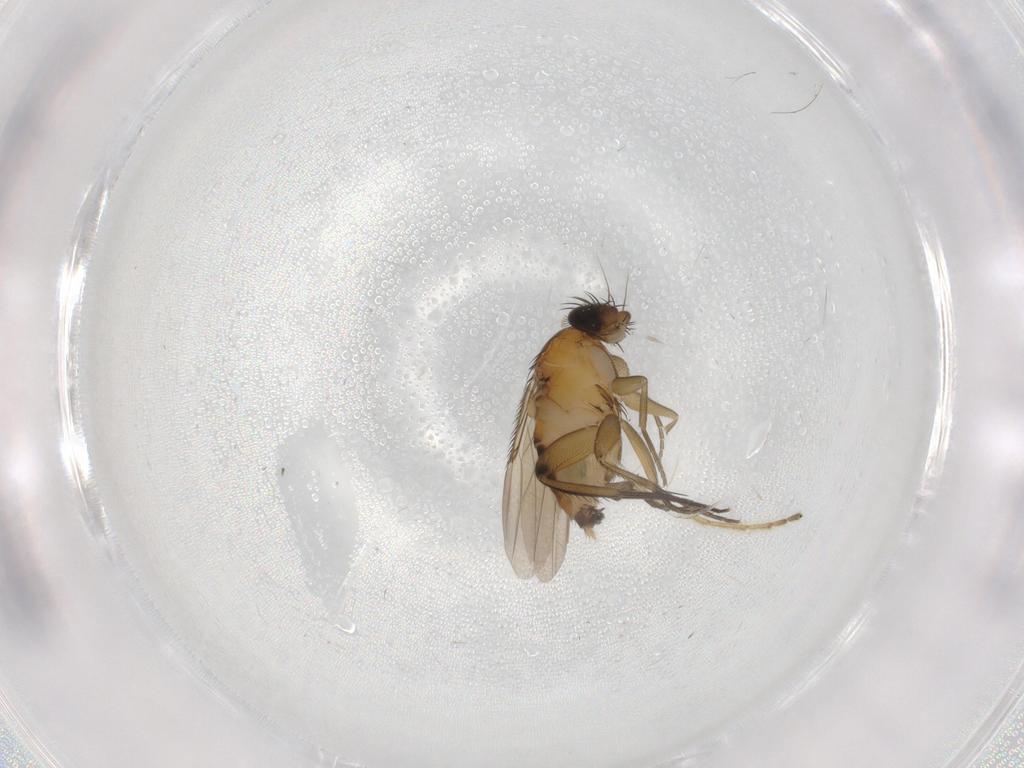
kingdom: Animalia
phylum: Arthropoda
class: Insecta
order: Diptera
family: Phoridae
